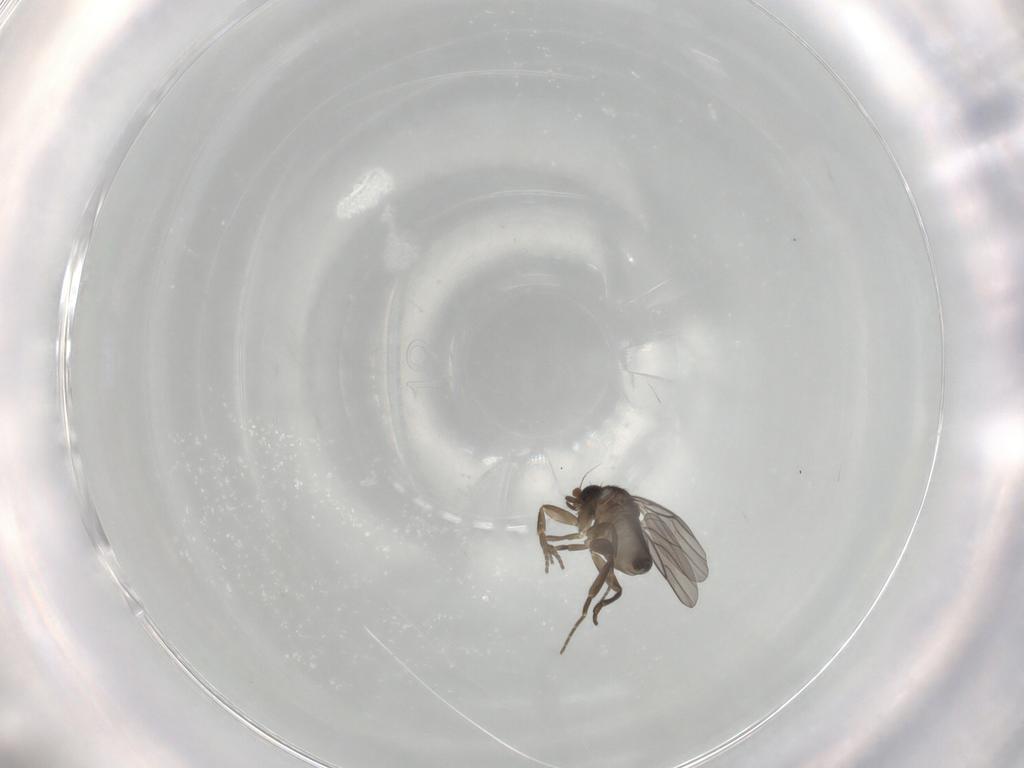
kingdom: Animalia
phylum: Arthropoda
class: Insecta
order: Diptera
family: Phoridae
